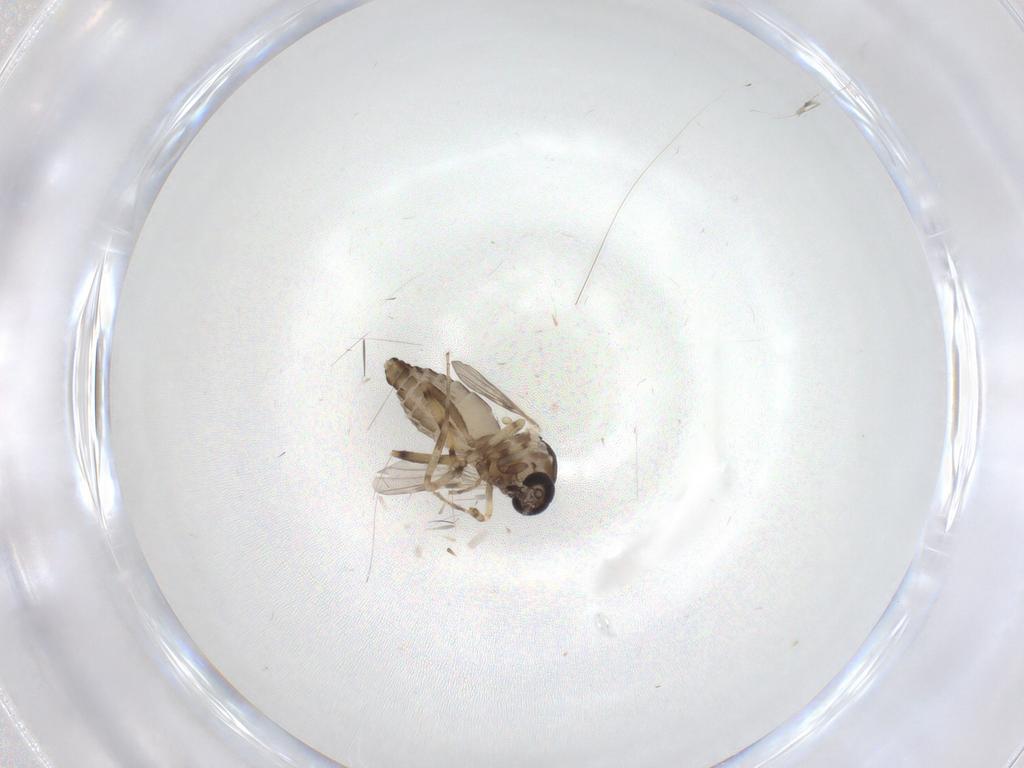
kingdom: Animalia
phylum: Arthropoda
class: Insecta
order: Diptera
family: Ceratopogonidae
